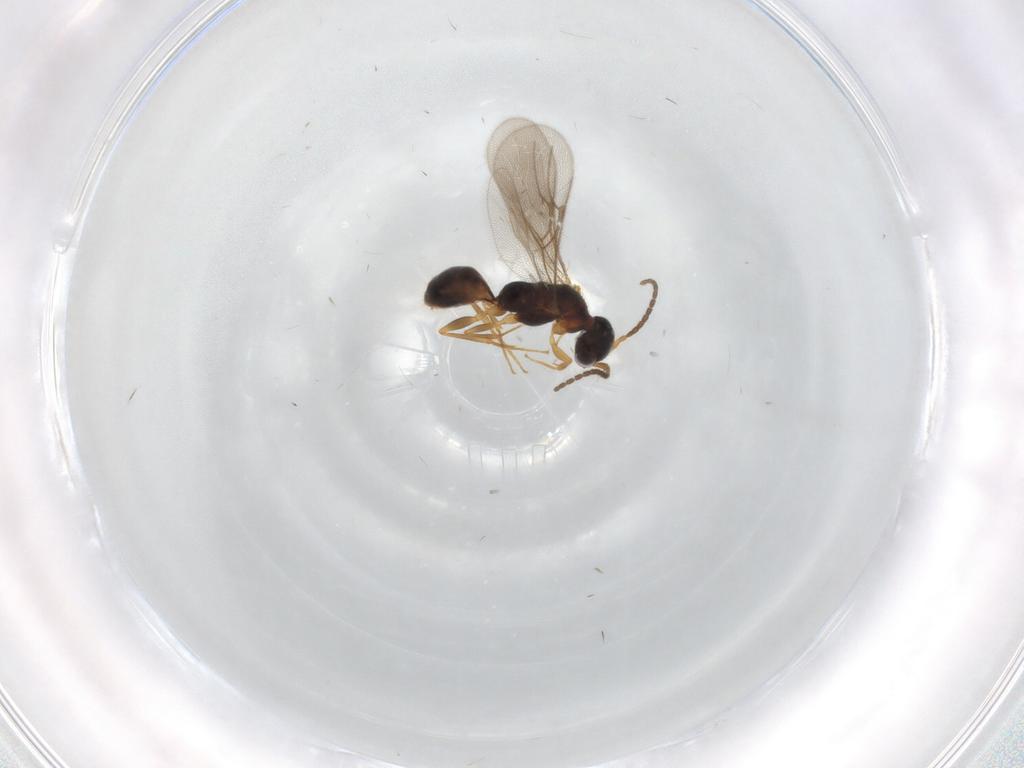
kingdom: Animalia
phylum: Arthropoda
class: Insecta
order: Hymenoptera
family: Bethylidae
